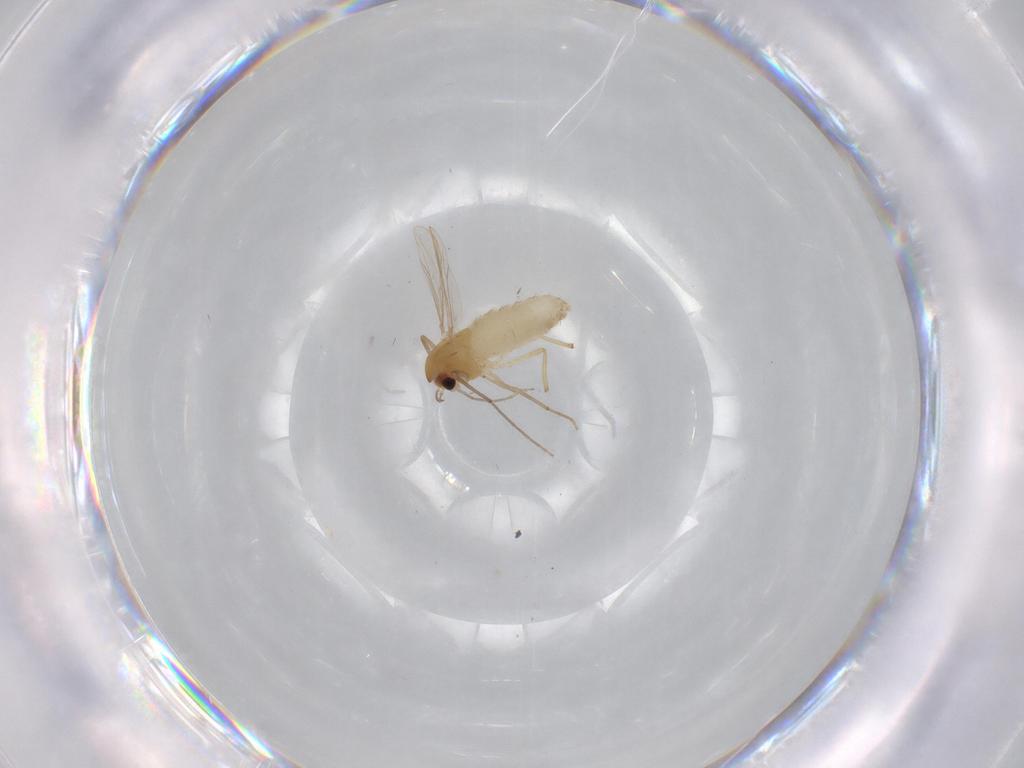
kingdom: Animalia
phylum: Arthropoda
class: Insecta
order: Diptera
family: Chironomidae
